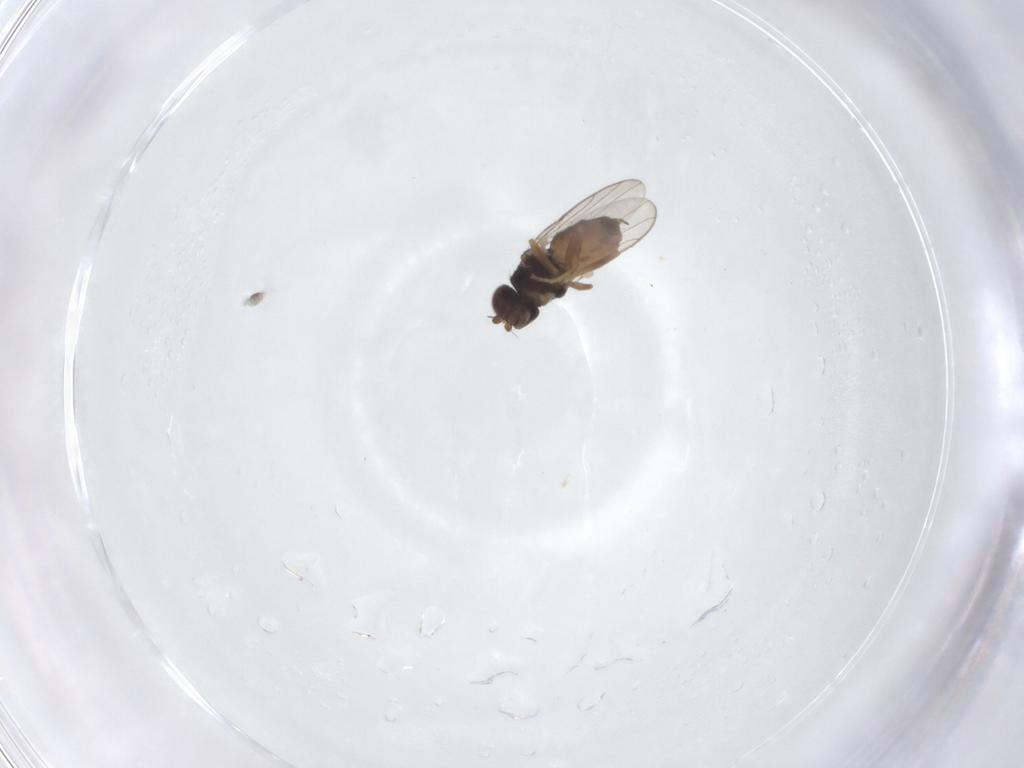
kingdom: Animalia
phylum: Arthropoda
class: Insecta
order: Diptera
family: Chloropidae
